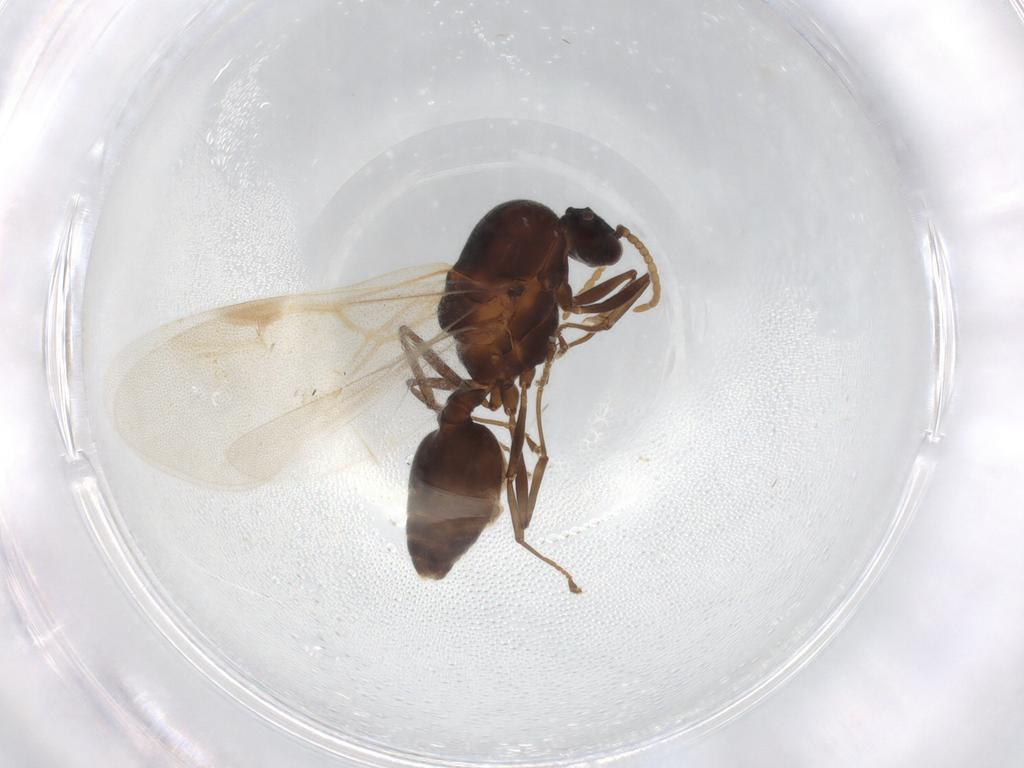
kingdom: Animalia
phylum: Arthropoda
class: Insecta
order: Hymenoptera
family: Formicidae
